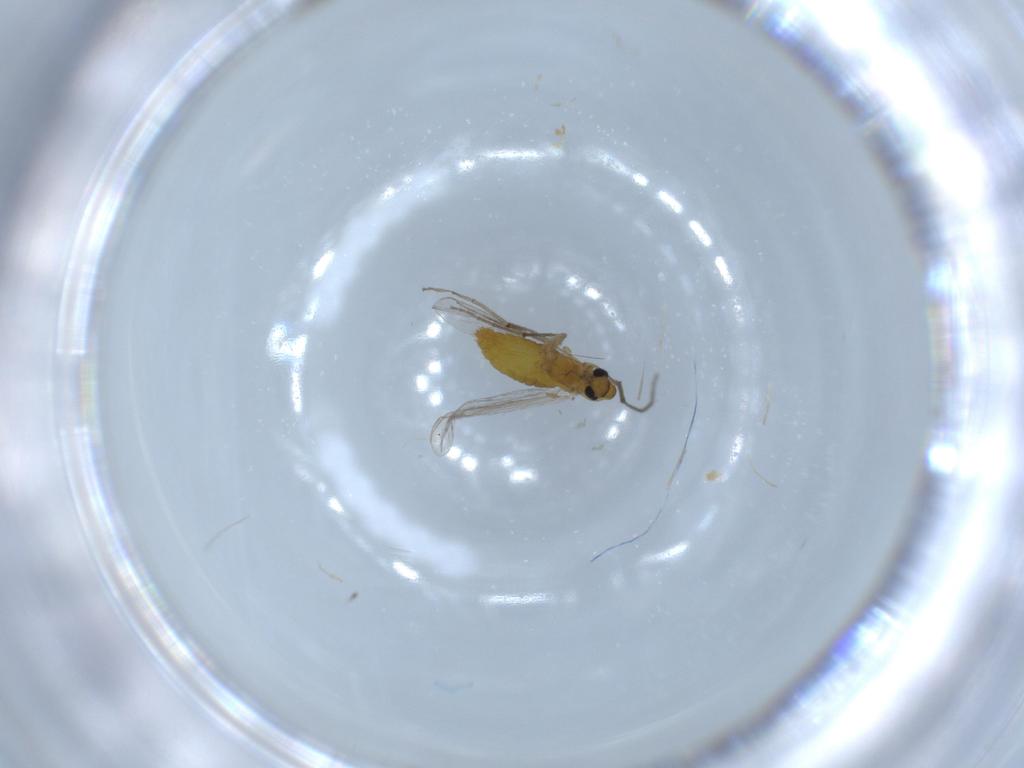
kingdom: Animalia
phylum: Arthropoda
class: Insecta
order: Diptera
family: Chironomidae
